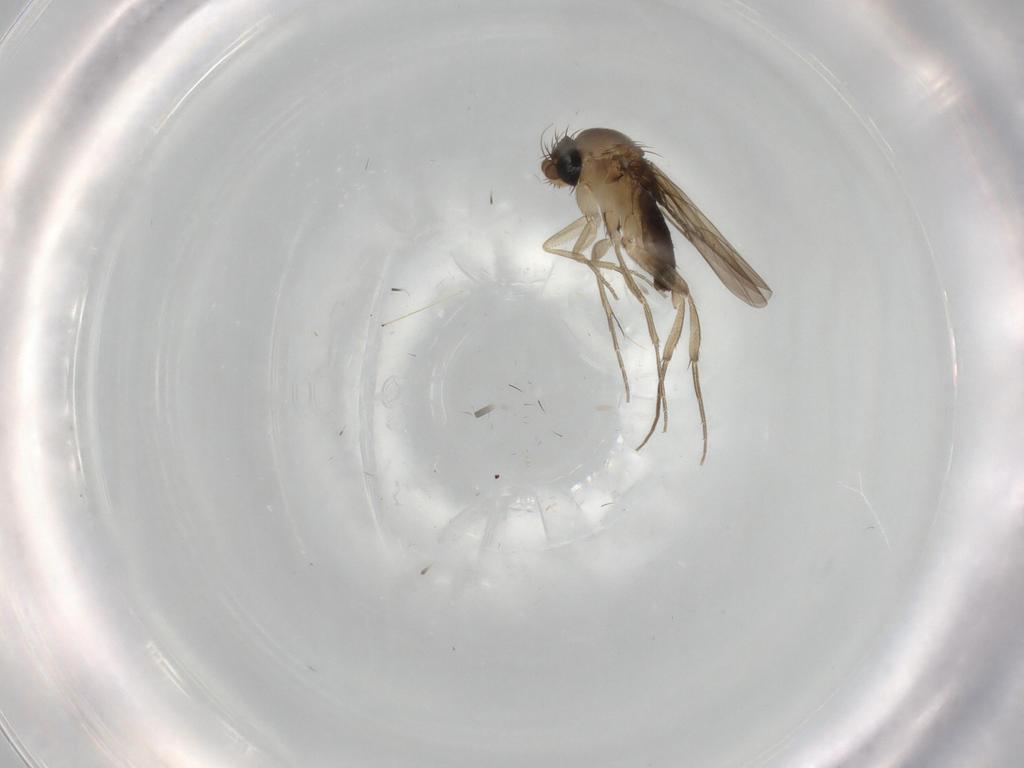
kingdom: Animalia
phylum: Arthropoda
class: Insecta
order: Diptera
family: Phoridae
